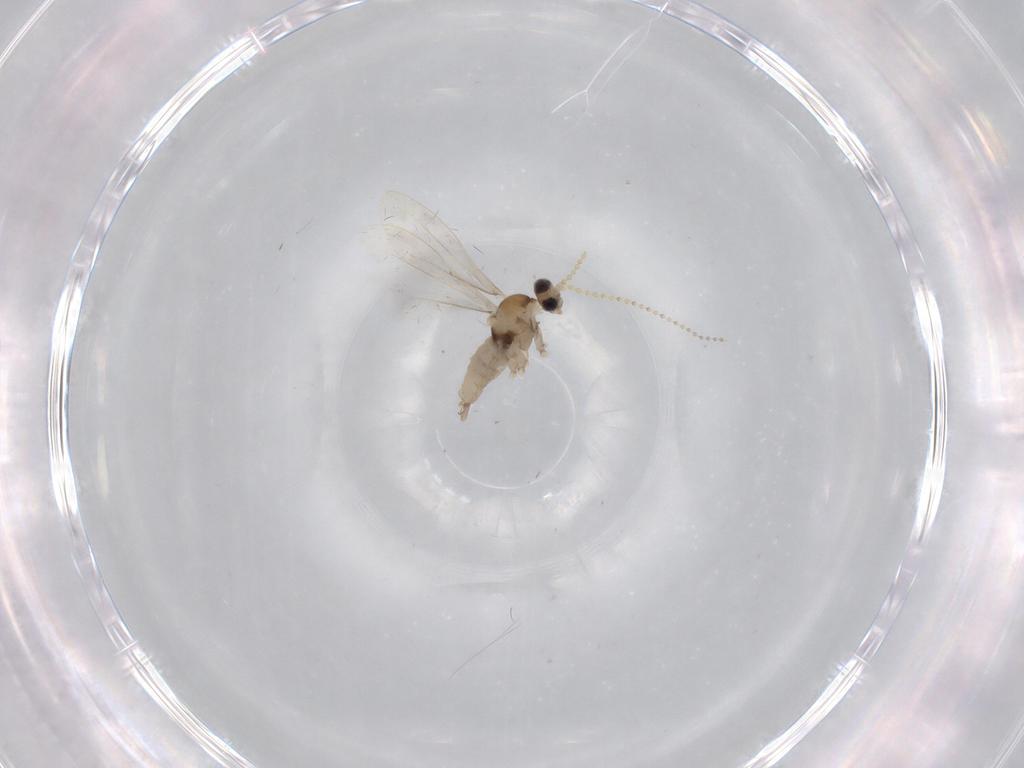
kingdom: Animalia
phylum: Arthropoda
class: Insecta
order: Diptera
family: Cecidomyiidae
